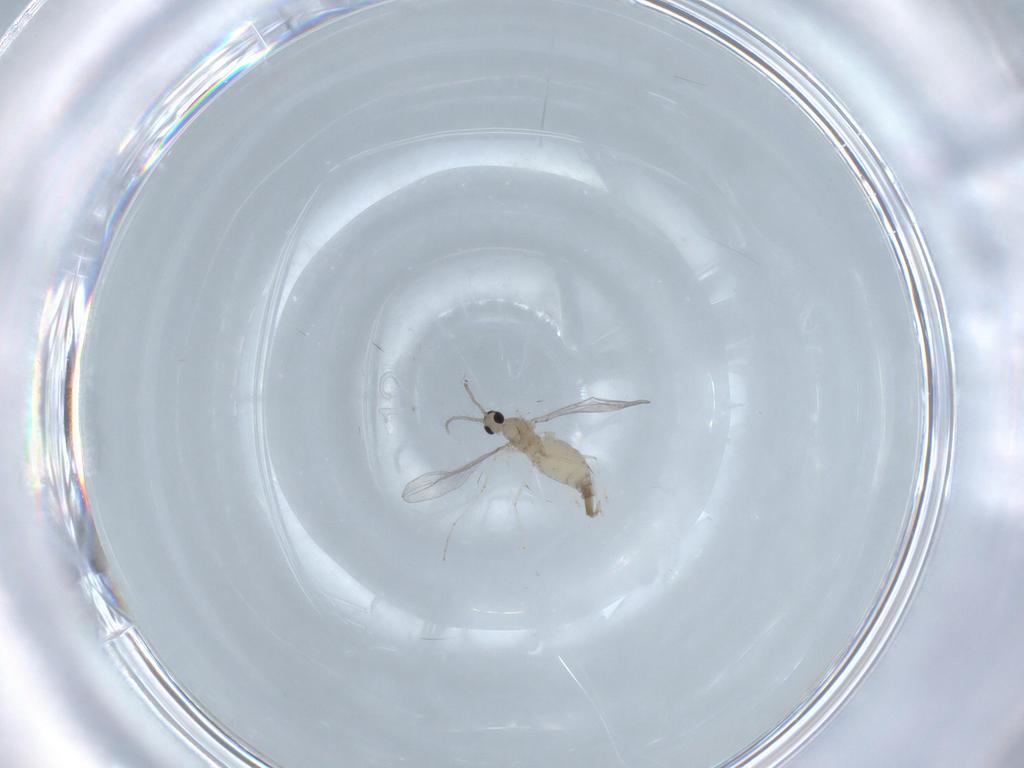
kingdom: Animalia
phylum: Arthropoda
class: Insecta
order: Diptera
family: Cecidomyiidae
